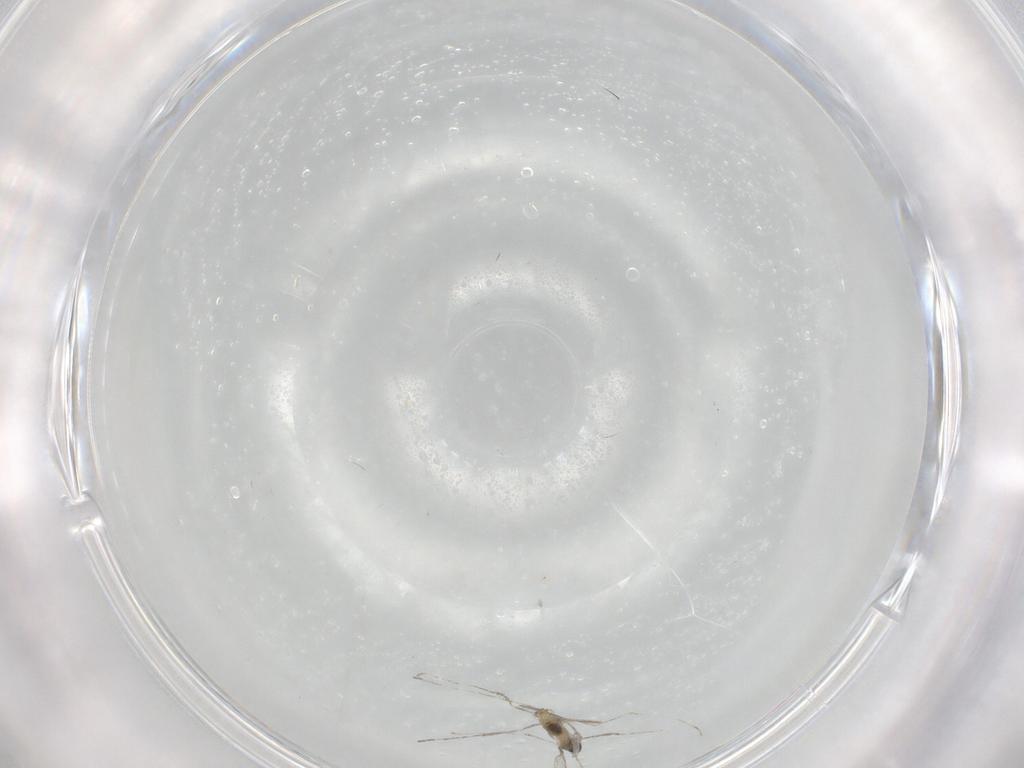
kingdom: Animalia
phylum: Arthropoda
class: Insecta
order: Diptera
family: Cecidomyiidae
